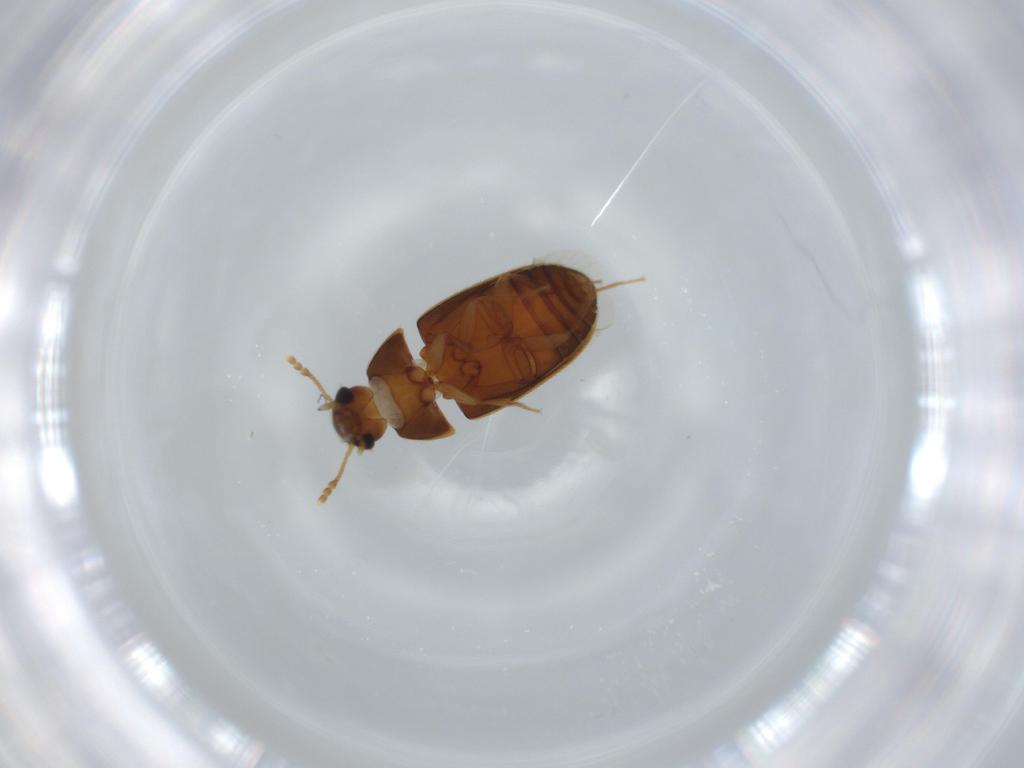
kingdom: Animalia
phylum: Arthropoda
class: Insecta
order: Coleoptera
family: Mycetophagidae
